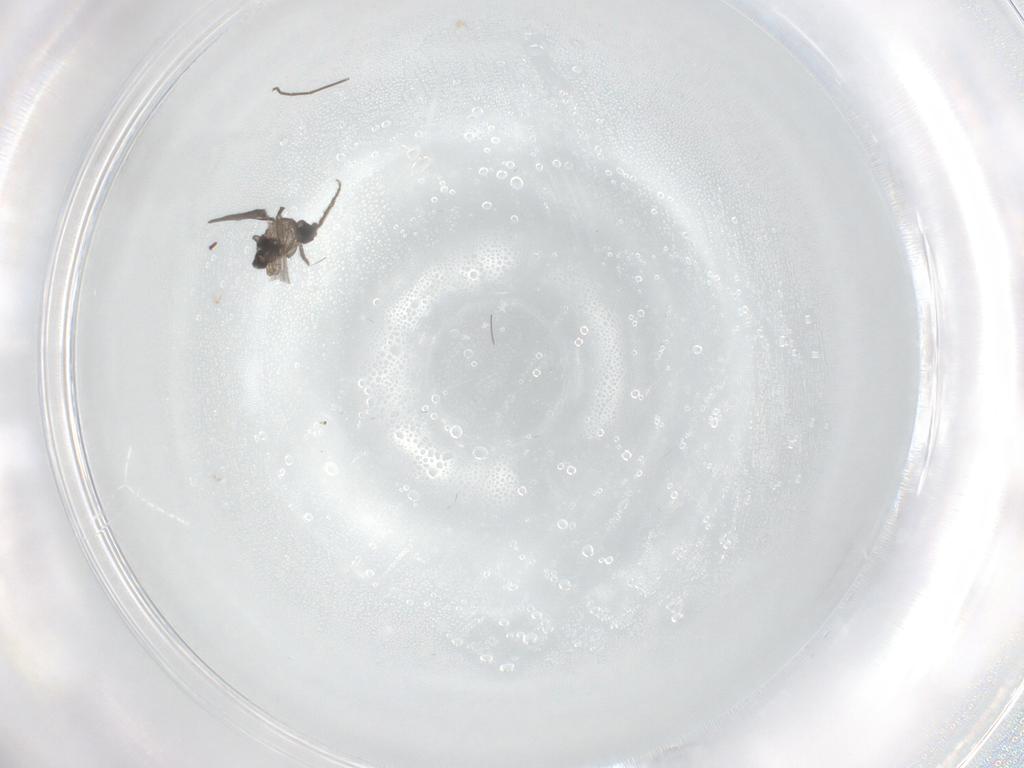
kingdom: Animalia
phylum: Arthropoda
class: Insecta
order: Diptera
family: Sciaridae
